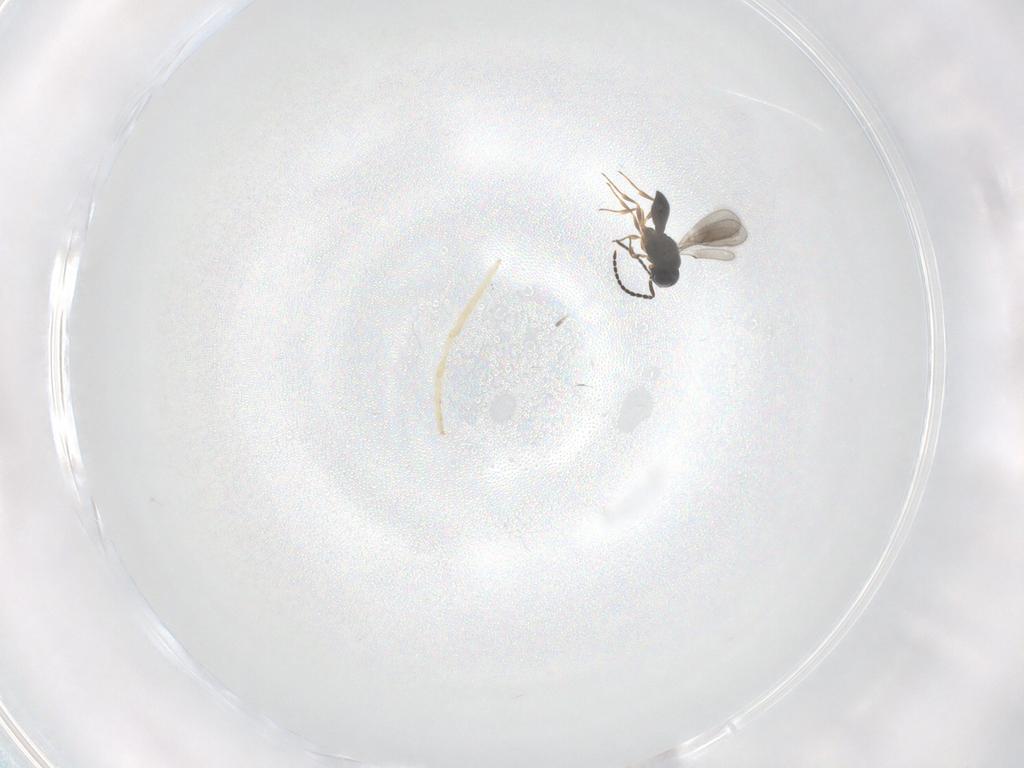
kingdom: Animalia
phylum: Arthropoda
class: Insecta
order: Hymenoptera
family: Scelionidae
